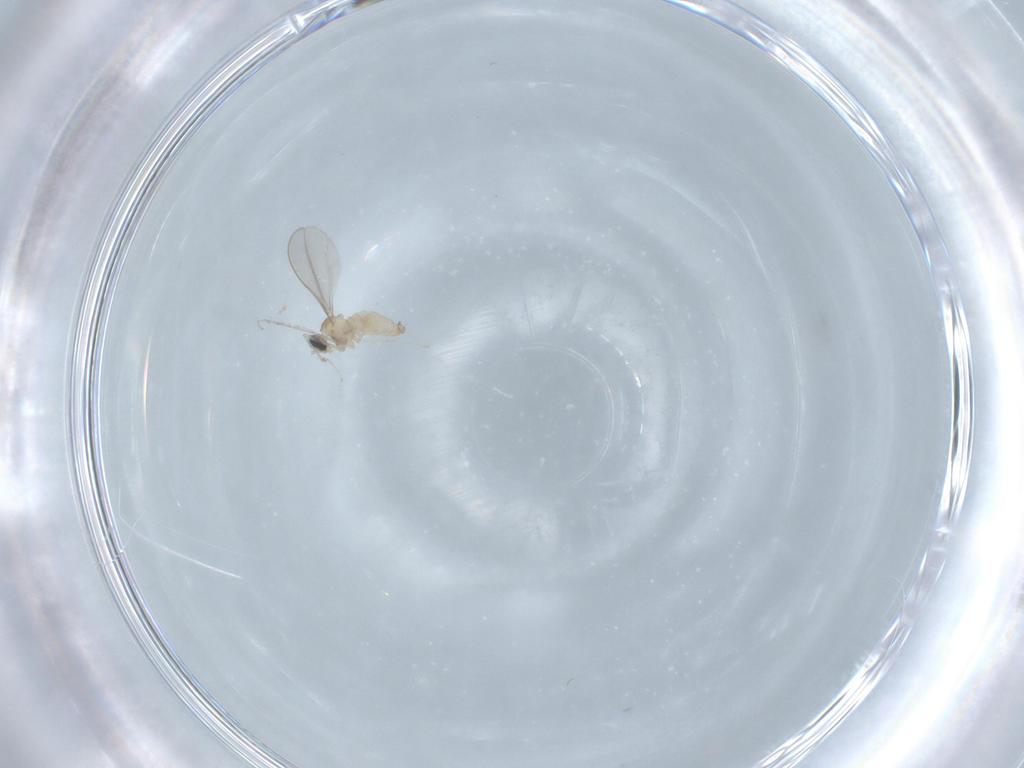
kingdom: Animalia
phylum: Arthropoda
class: Insecta
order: Diptera
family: Cecidomyiidae
